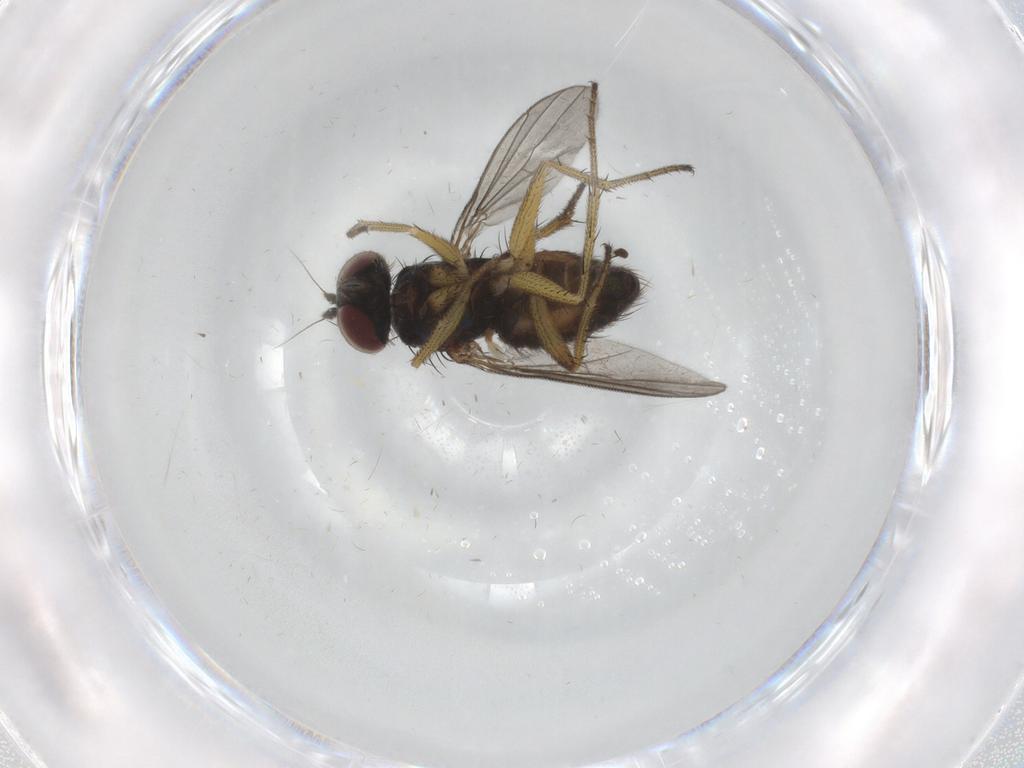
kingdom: Animalia
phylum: Arthropoda
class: Insecta
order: Diptera
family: Dolichopodidae
